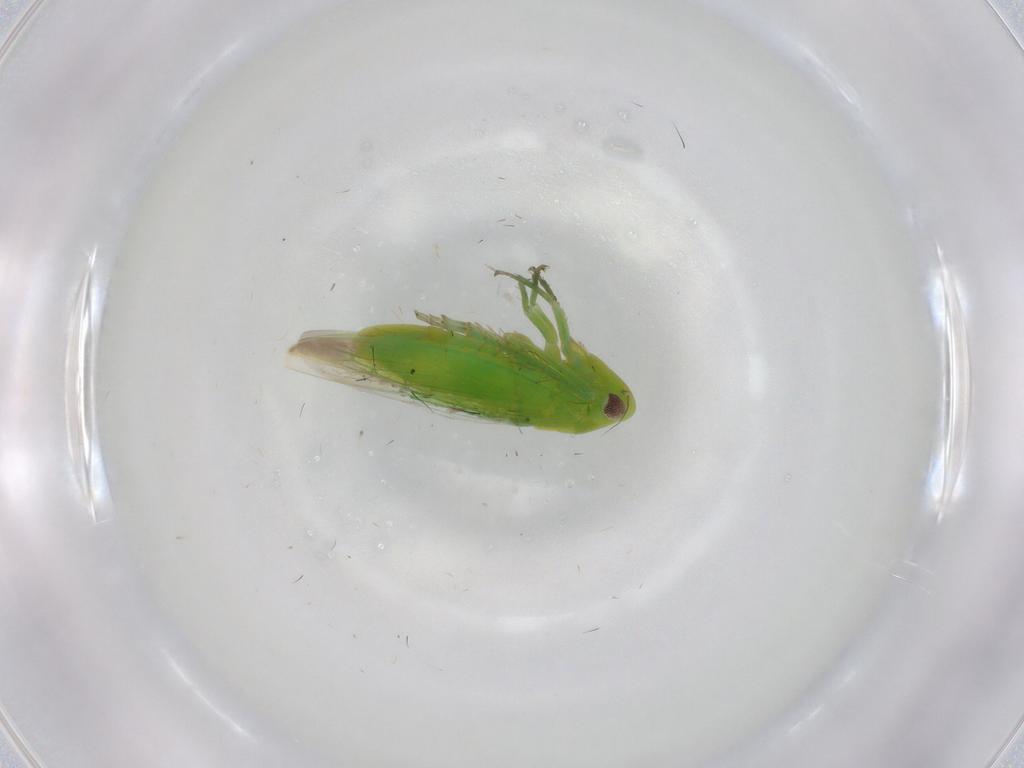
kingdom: Animalia
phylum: Arthropoda
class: Insecta
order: Hemiptera
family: Cicadellidae
